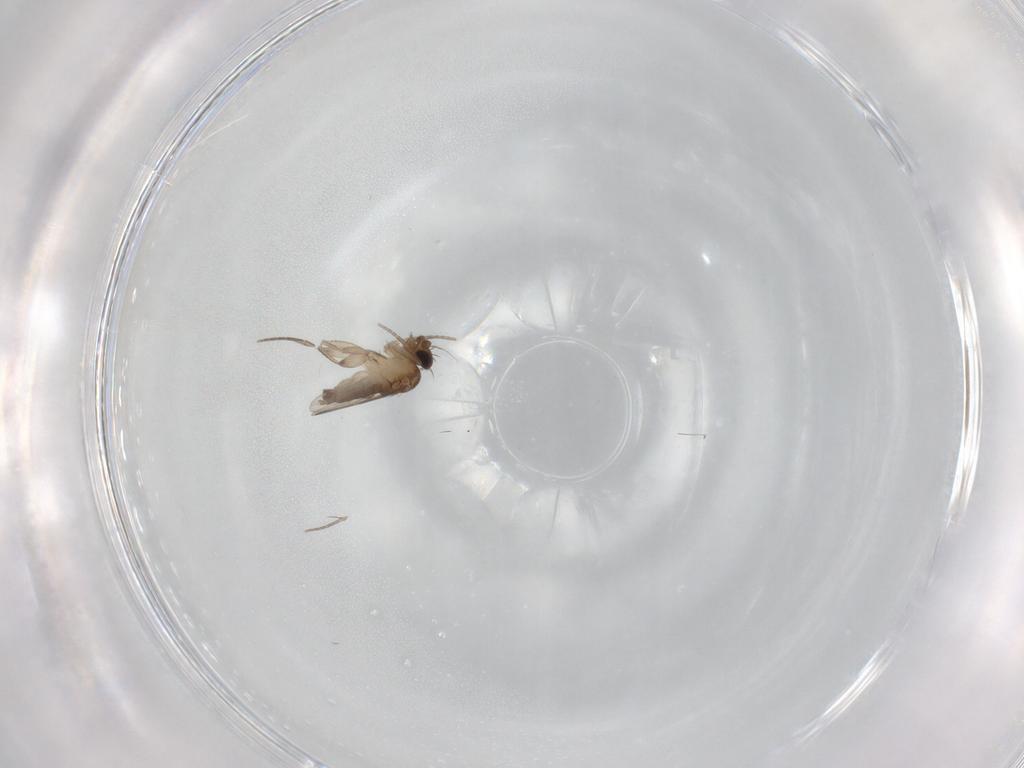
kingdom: Animalia
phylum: Arthropoda
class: Insecta
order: Diptera
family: Phoridae
